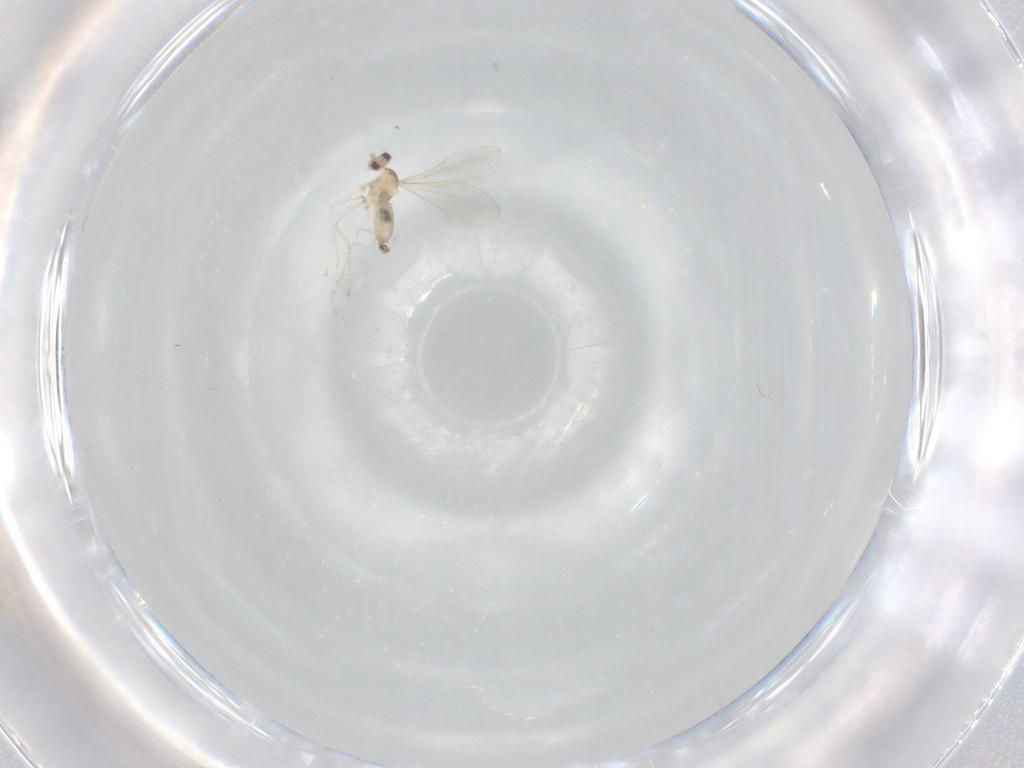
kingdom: Animalia
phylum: Arthropoda
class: Insecta
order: Diptera
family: Cecidomyiidae
